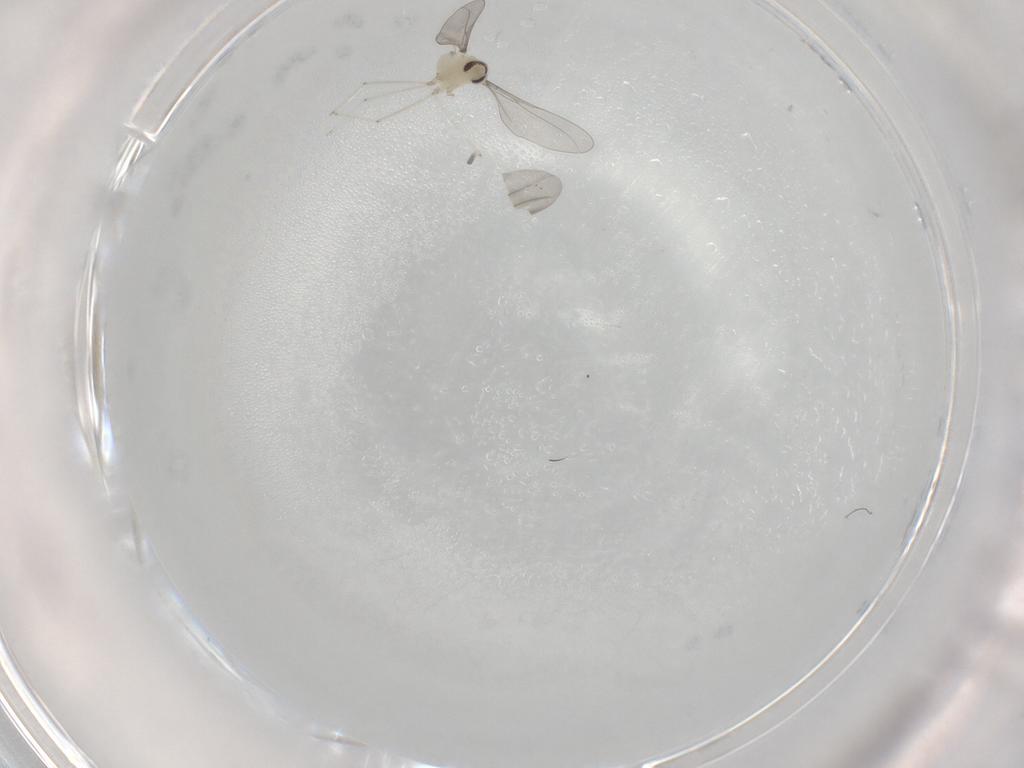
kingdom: Animalia
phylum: Arthropoda
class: Insecta
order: Diptera
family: Cecidomyiidae
